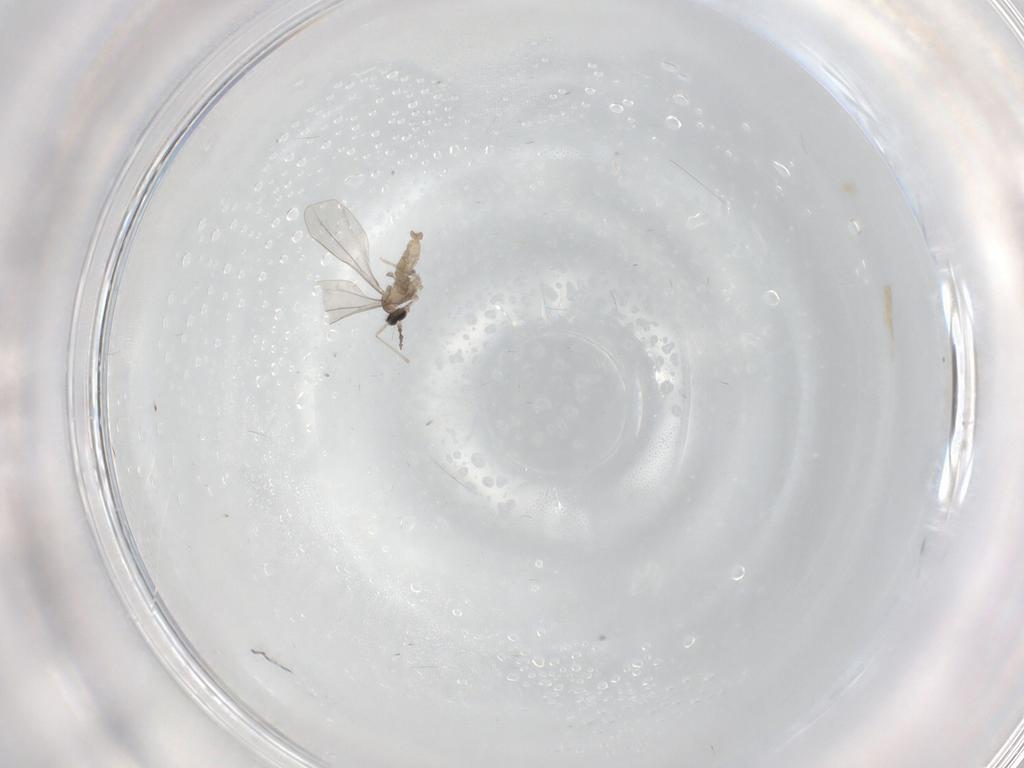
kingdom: Animalia
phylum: Arthropoda
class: Insecta
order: Diptera
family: Cecidomyiidae
